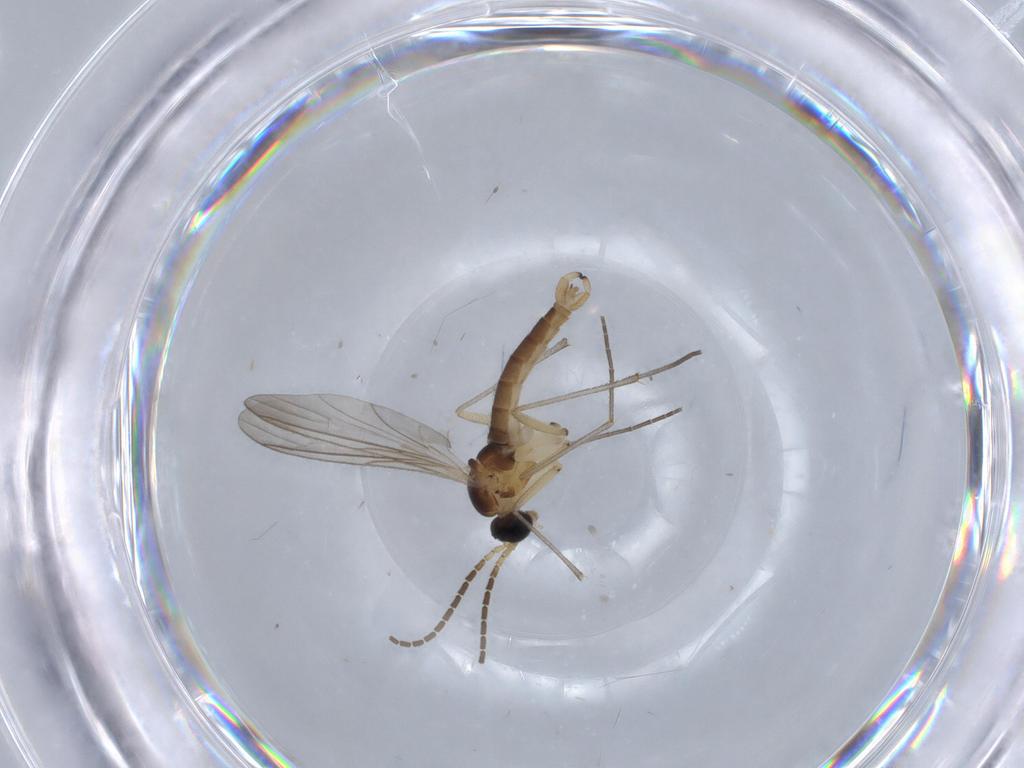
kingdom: Animalia
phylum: Arthropoda
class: Insecta
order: Diptera
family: Sciaridae
